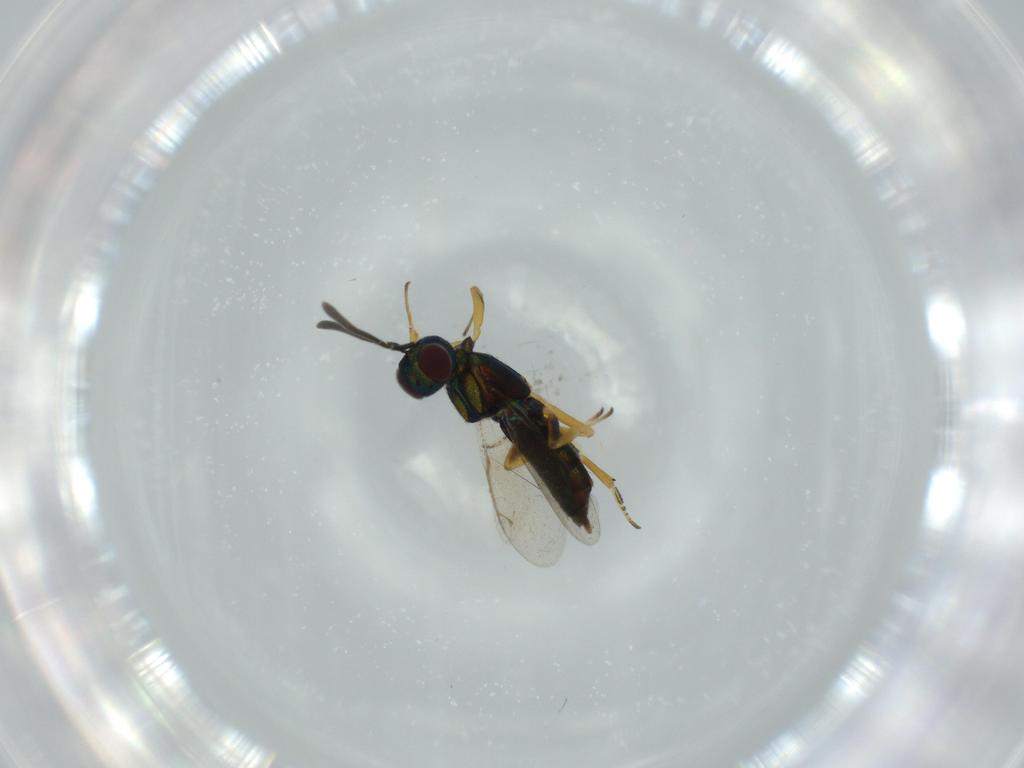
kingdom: Animalia
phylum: Arthropoda
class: Insecta
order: Hymenoptera
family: Eupelmidae
